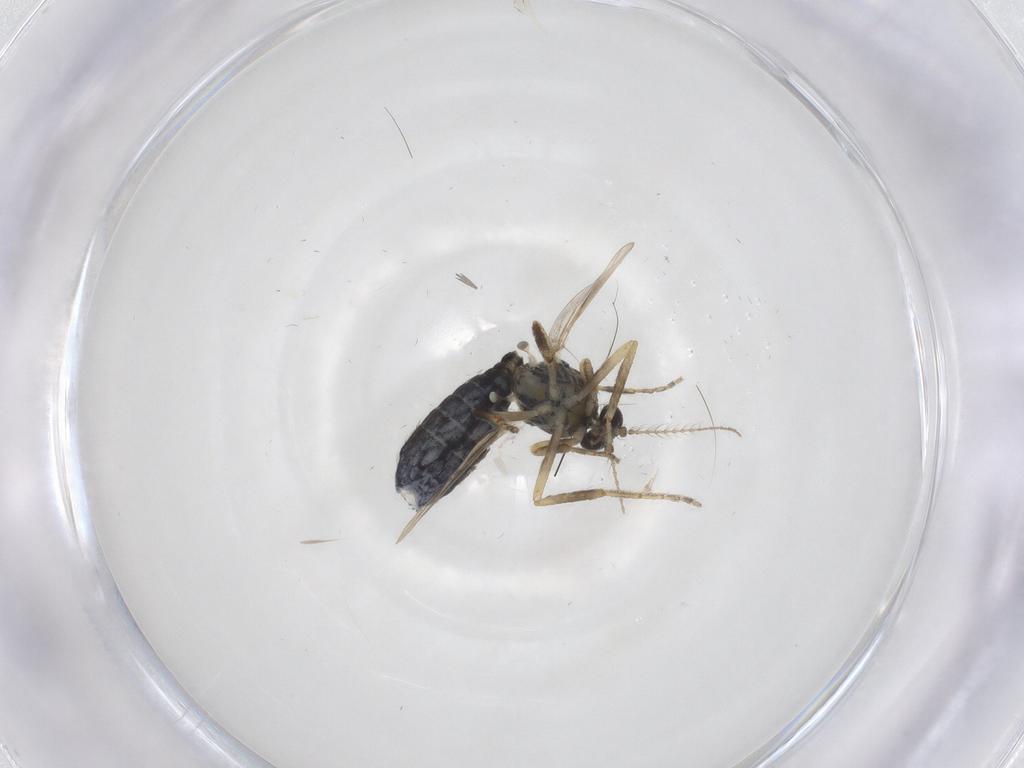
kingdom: Animalia
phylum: Arthropoda
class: Insecta
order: Diptera
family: Ceratopogonidae
